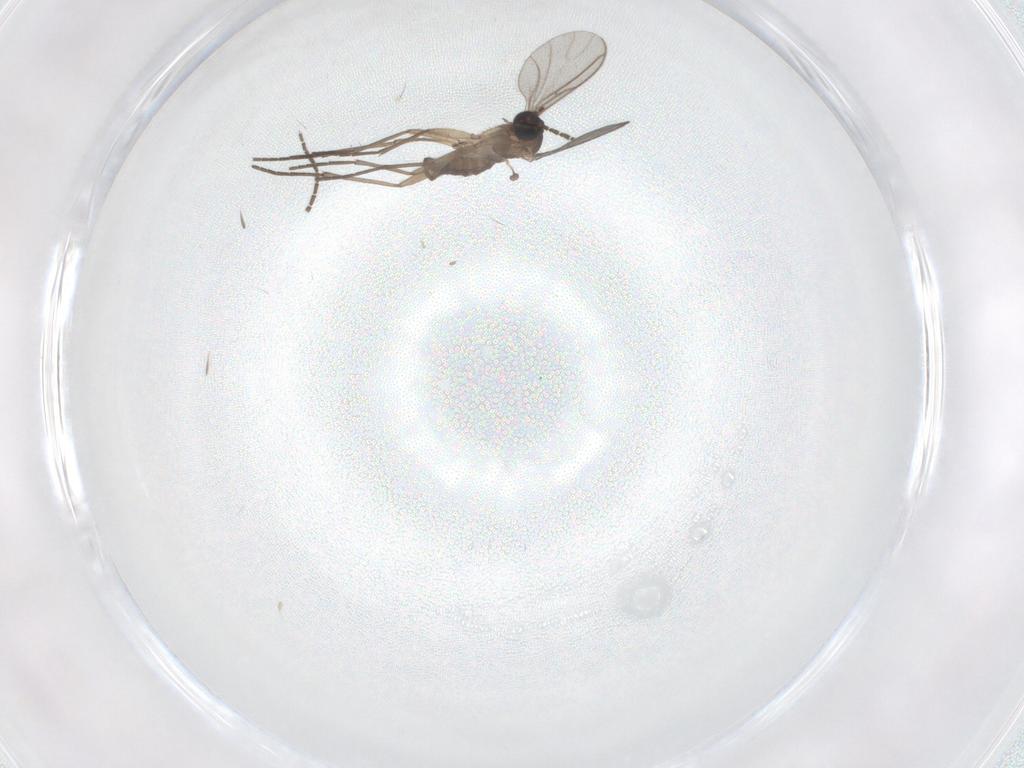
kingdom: Animalia
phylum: Arthropoda
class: Insecta
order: Diptera
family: Sciaridae
